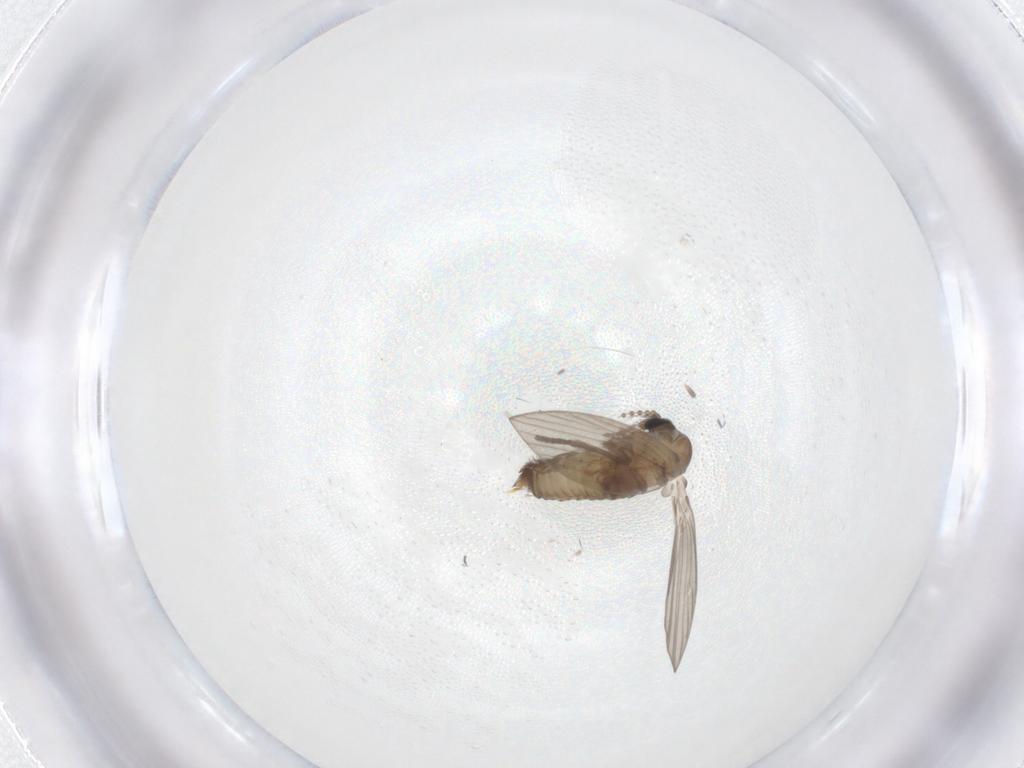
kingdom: Animalia
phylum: Arthropoda
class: Insecta
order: Diptera
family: Psychodidae
